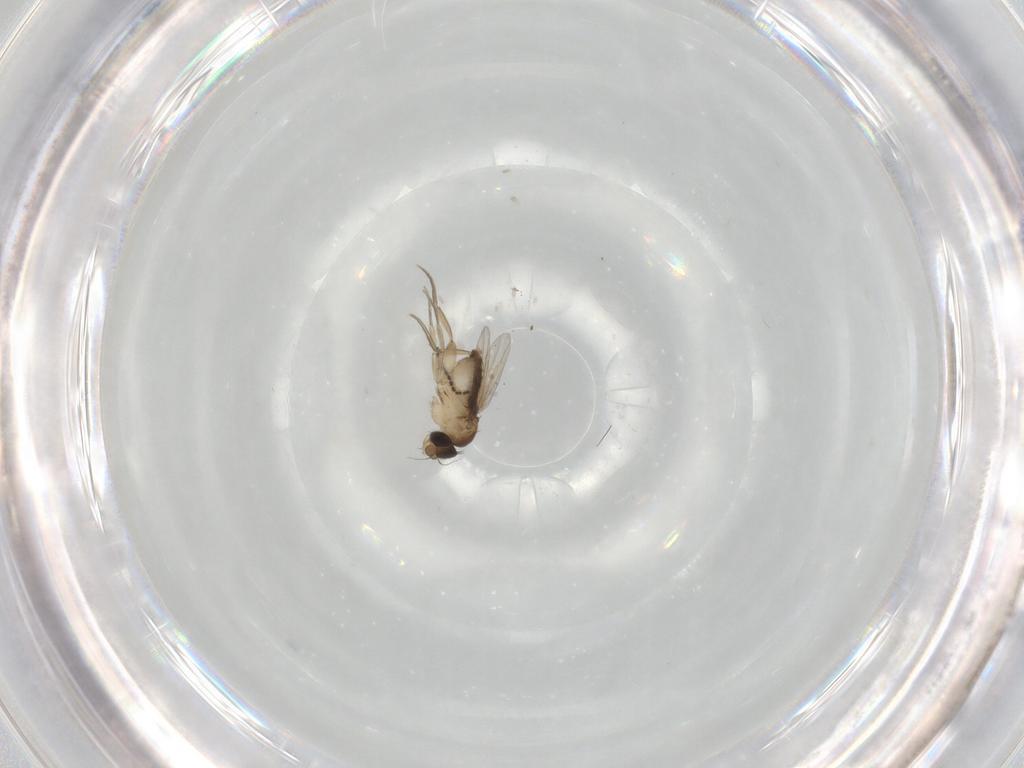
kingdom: Animalia
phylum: Arthropoda
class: Insecta
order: Diptera
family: Phoridae
